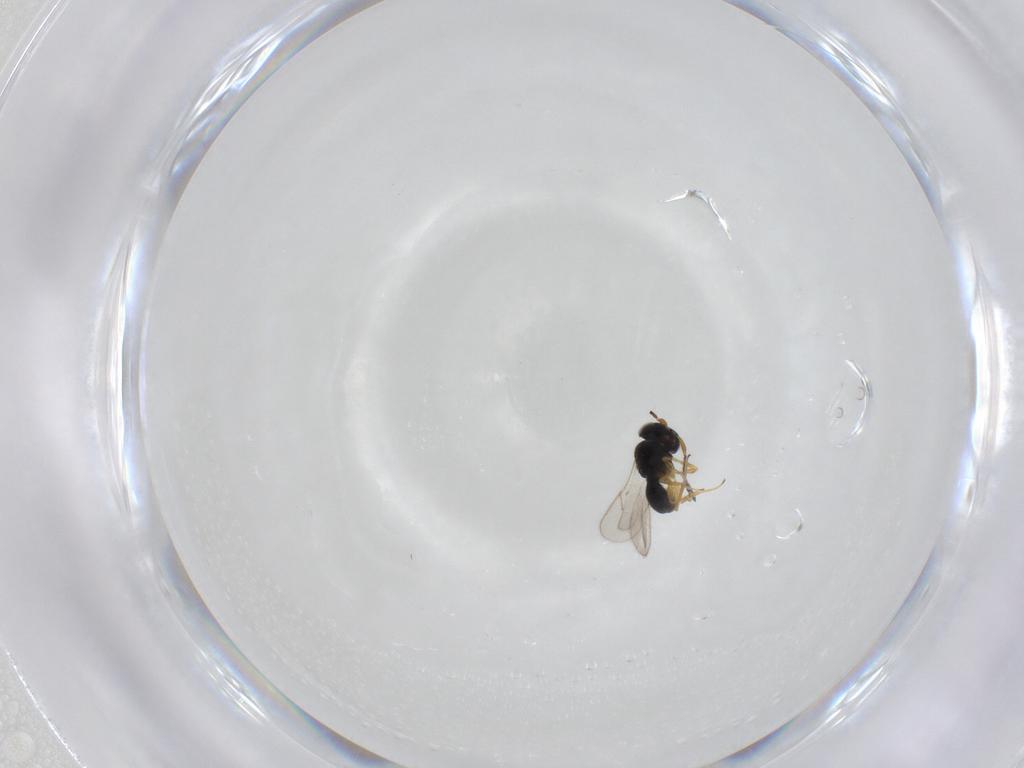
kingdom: Animalia
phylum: Arthropoda
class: Insecta
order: Hymenoptera
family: Scelionidae
